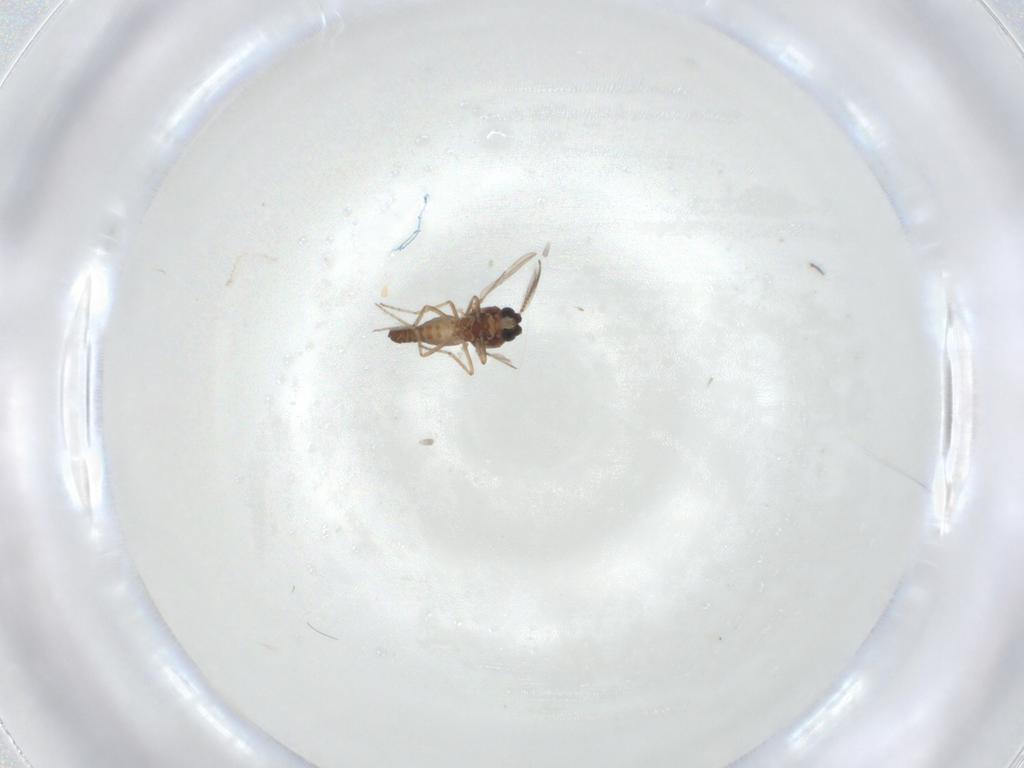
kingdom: Animalia
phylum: Arthropoda
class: Insecta
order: Diptera
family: Ceratopogonidae
